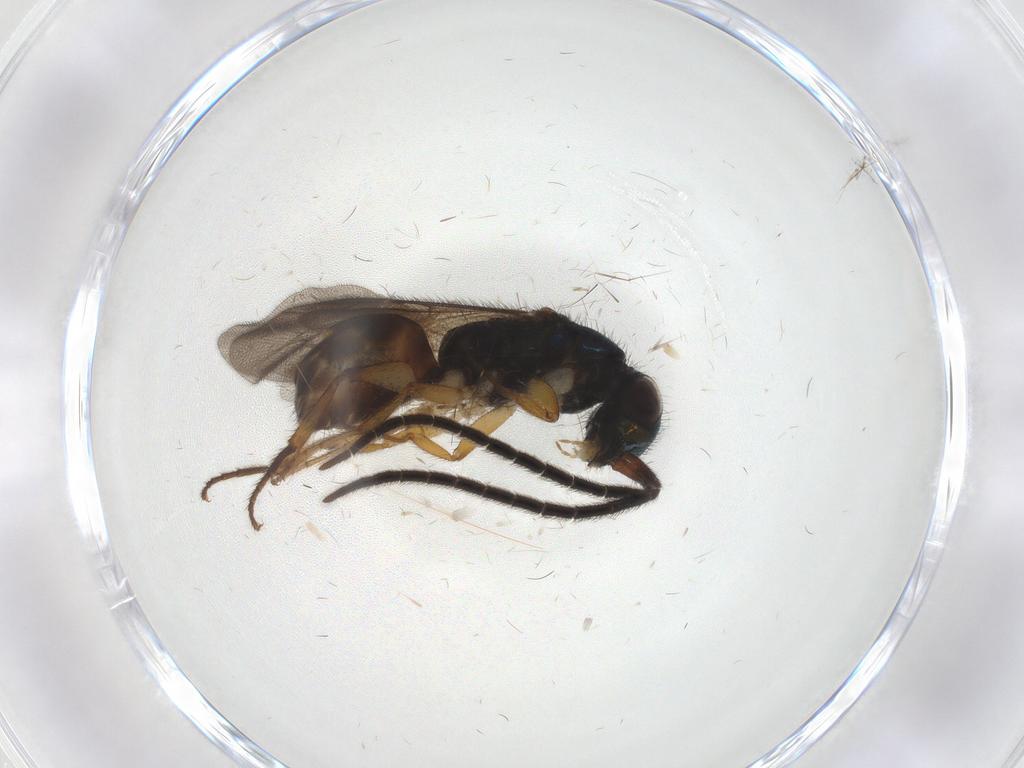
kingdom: Animalia
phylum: Arthropoda
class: Insecta
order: Hymenoptera
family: Chrysididae
